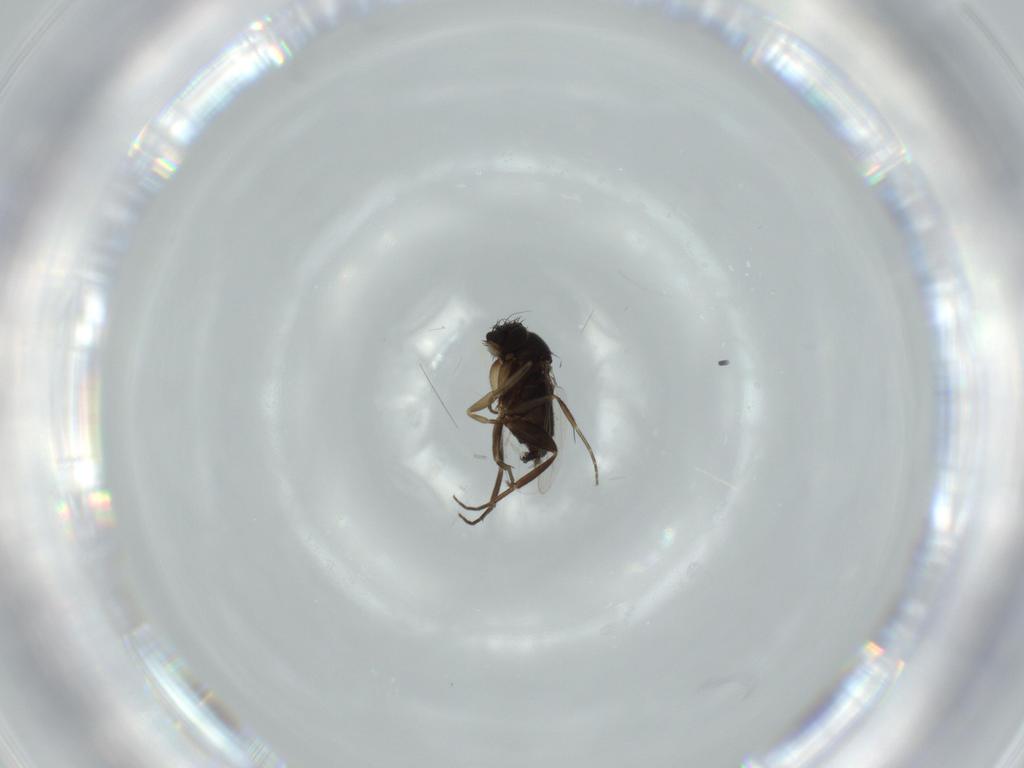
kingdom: Animalia
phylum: Arthropoda
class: Insecta
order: Diptera
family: Phoridae
